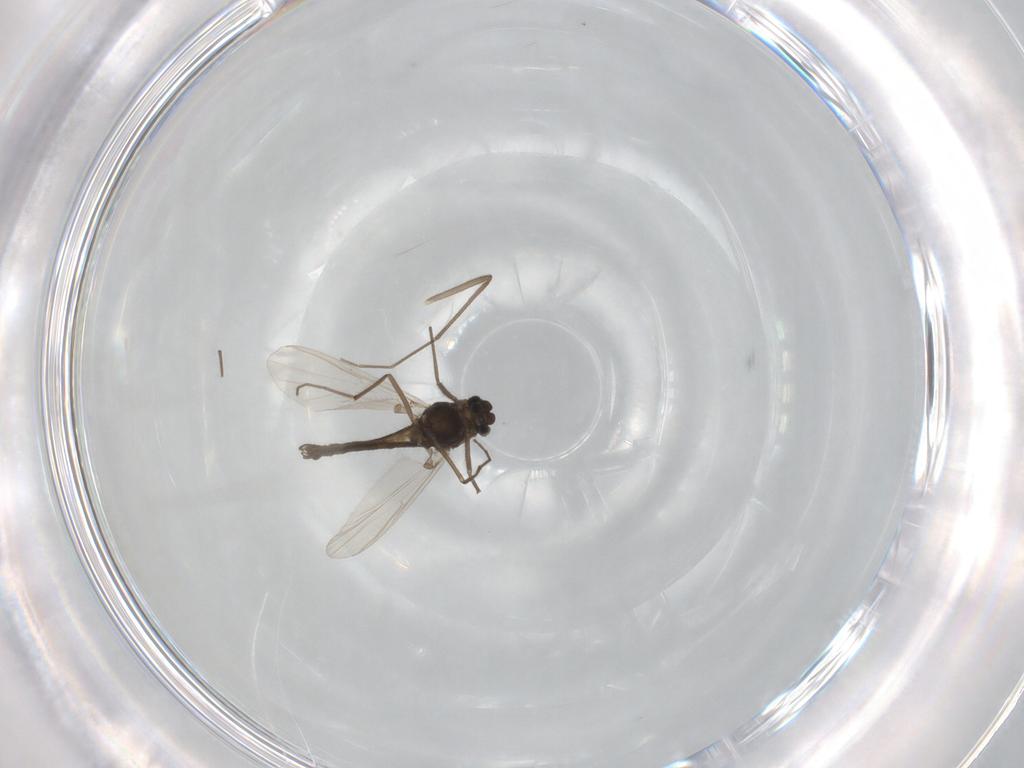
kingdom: Animalia
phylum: Arthropoda
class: Insecta
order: Diptera
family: Chironomidae
